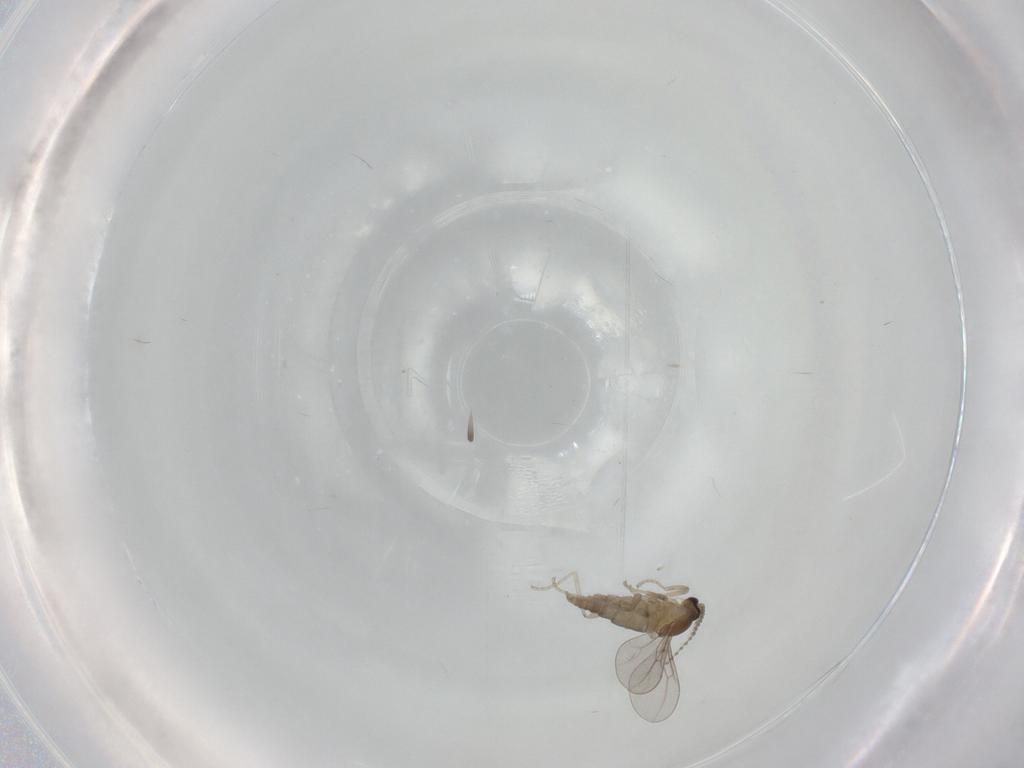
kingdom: Animalia
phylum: Arthropoda
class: Insecta
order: Diptera
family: Cecidomyiidae
